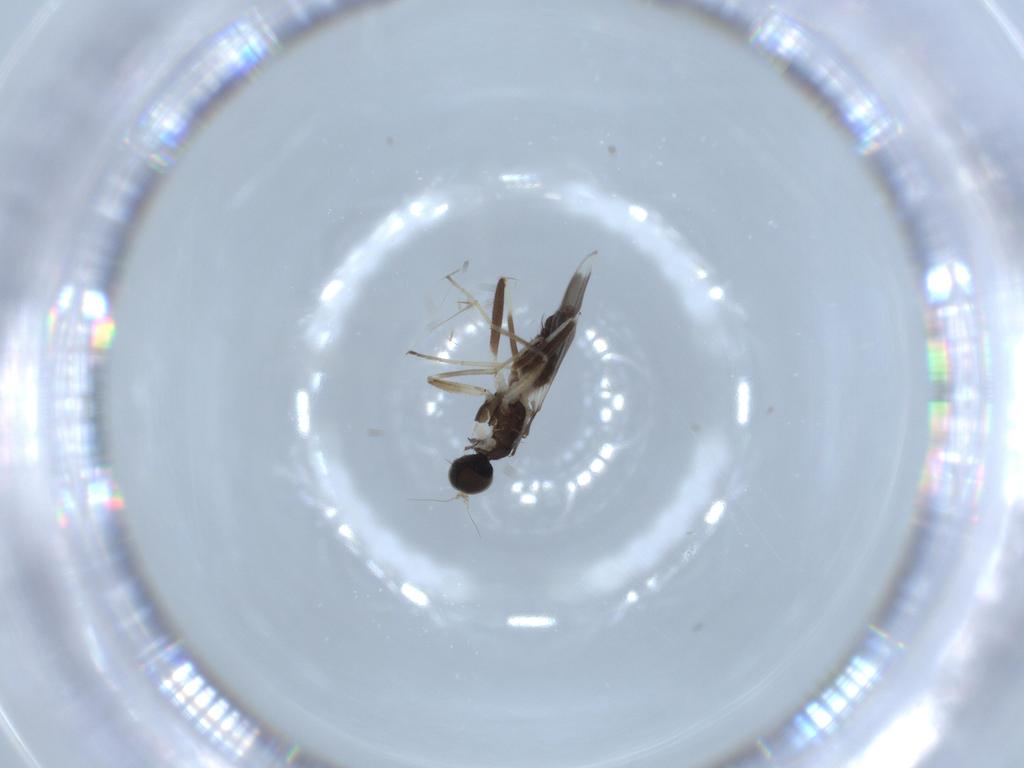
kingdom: Animalia
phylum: Arthropoda
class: Insecta
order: Diptera
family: Hybotidae
